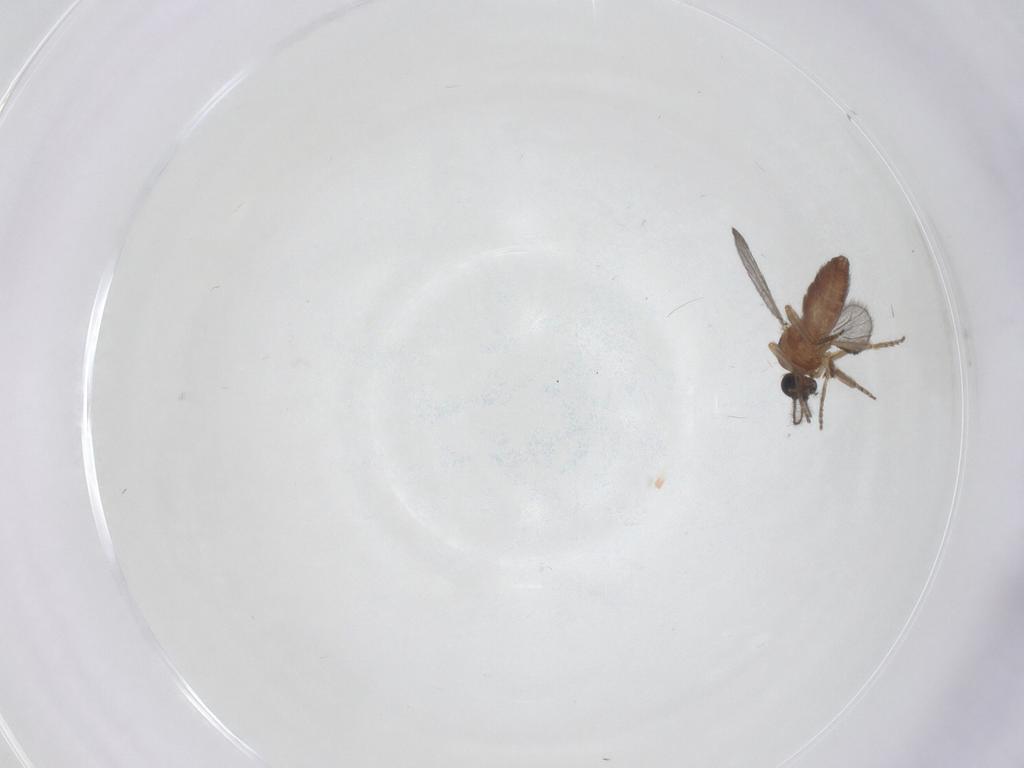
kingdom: Animalia
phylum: Arthropoda
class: Insecta
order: Diptera
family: Ceratopogonidae
